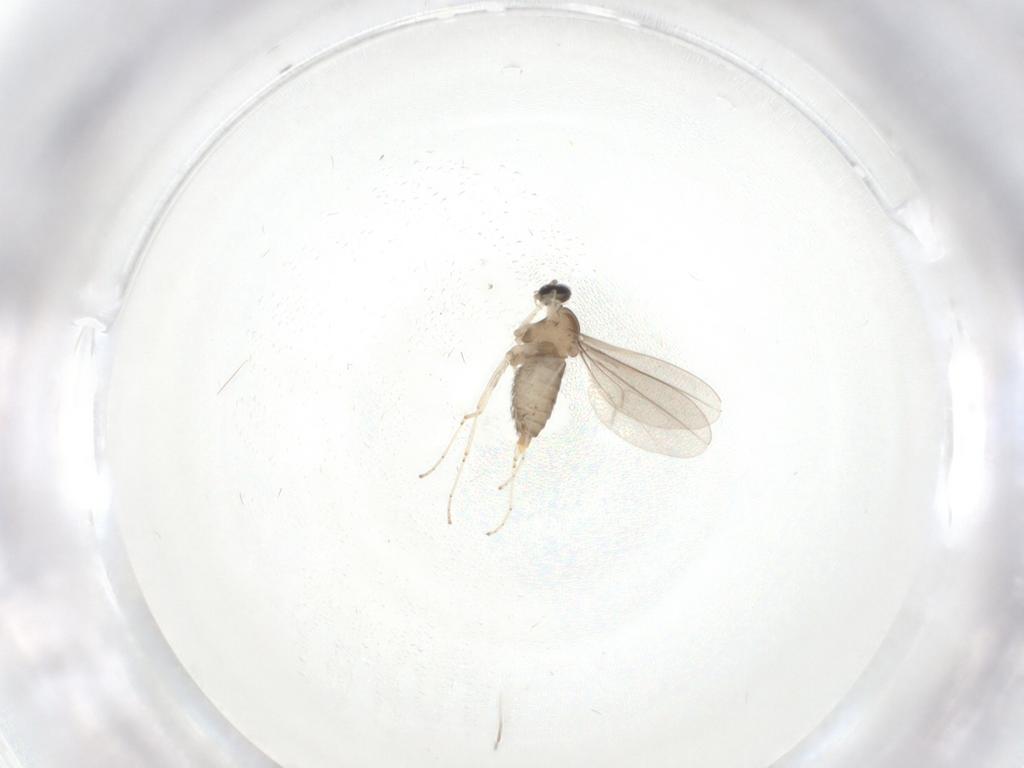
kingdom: Animalia
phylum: Arthropoda
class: Insecta
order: Diptera
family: Cecidomyiidae
